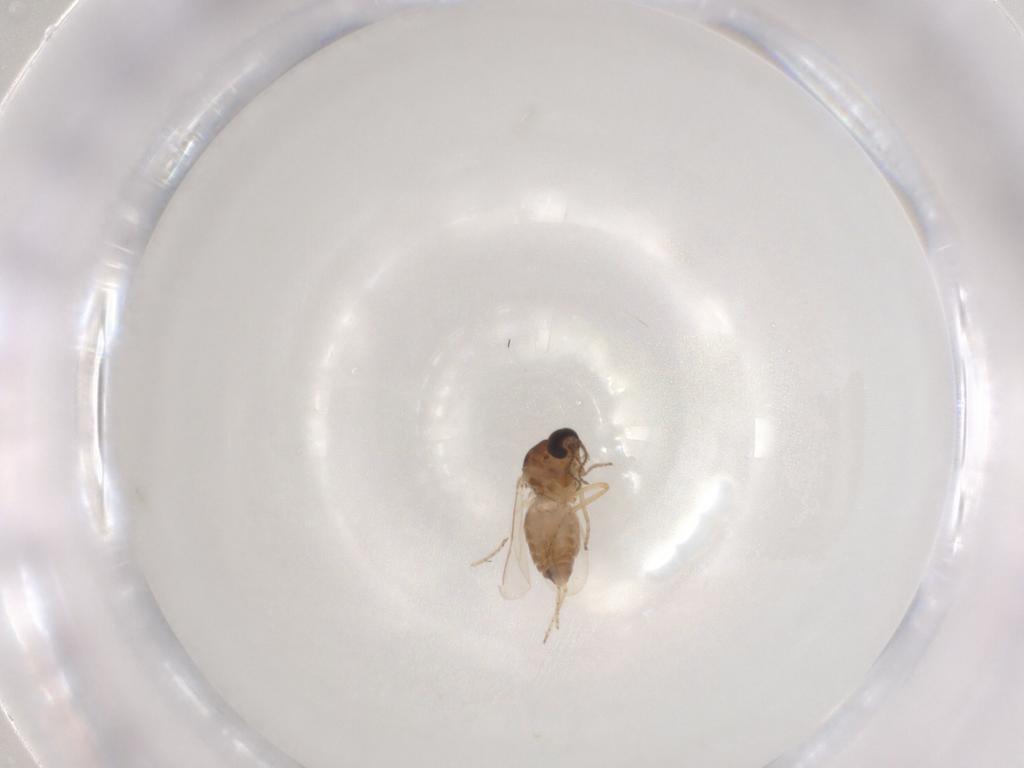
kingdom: Animalia
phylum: Arthropoda
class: Insecta
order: Diptera
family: Ceratopogonidae
